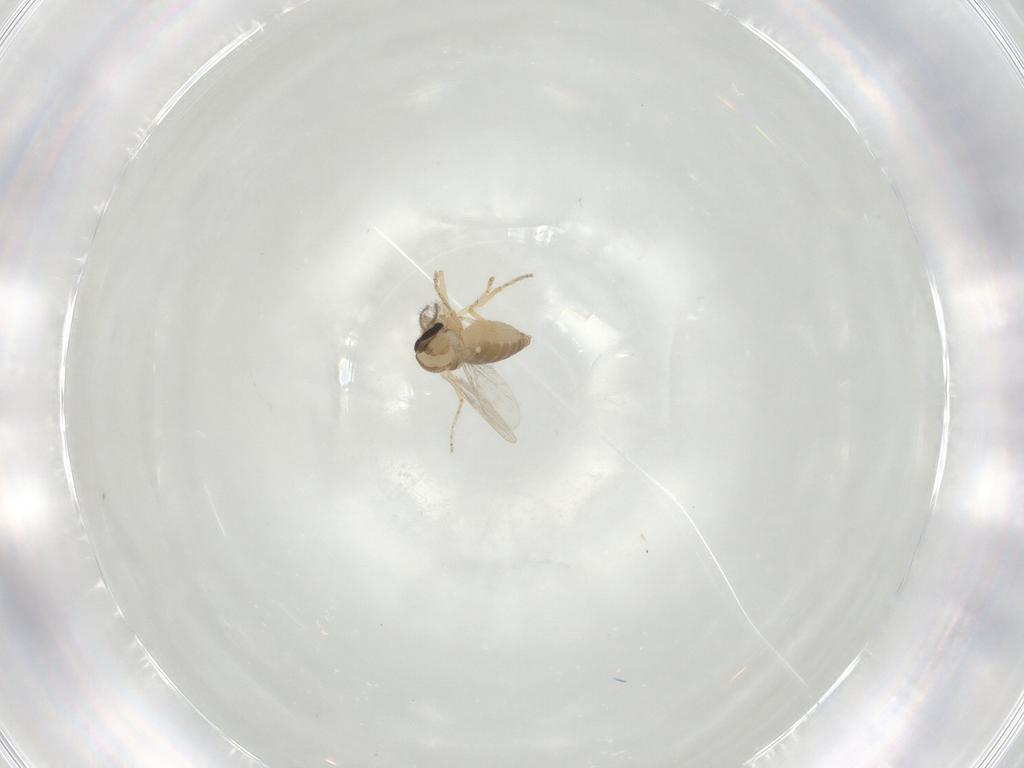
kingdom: Animalia
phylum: Arthropoda
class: Insecta
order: Diptera
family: Ceratopogonidae
